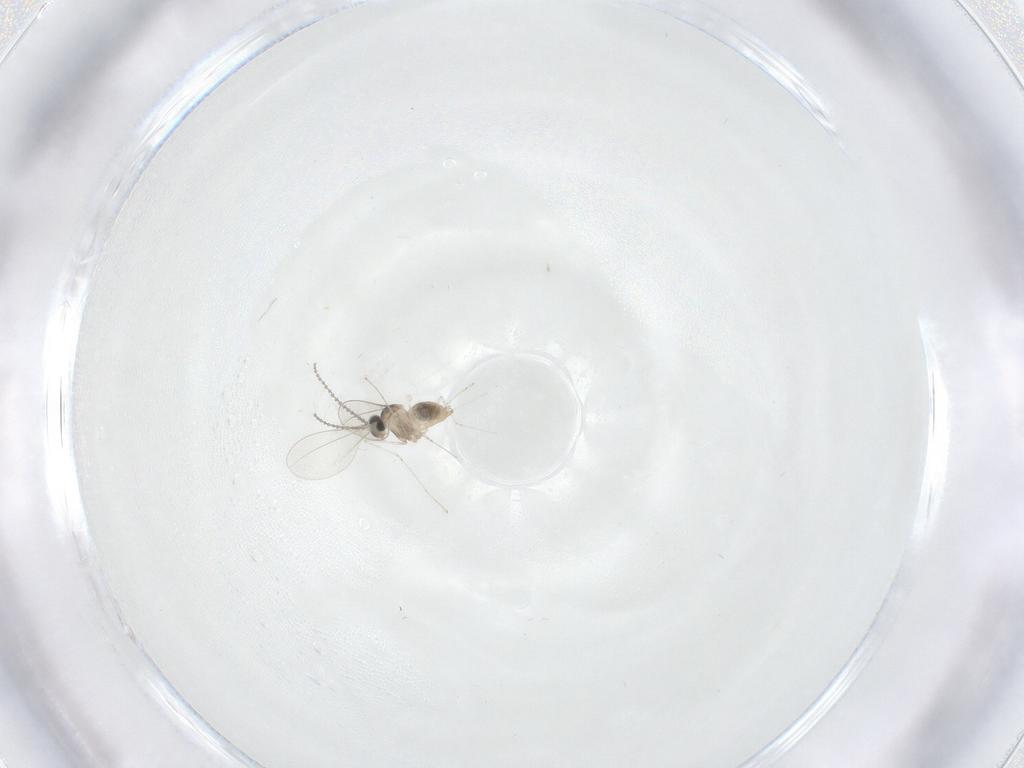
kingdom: Animalia
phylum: Arthropoda
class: Insecta
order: Diptera
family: Cecidomyiidae
